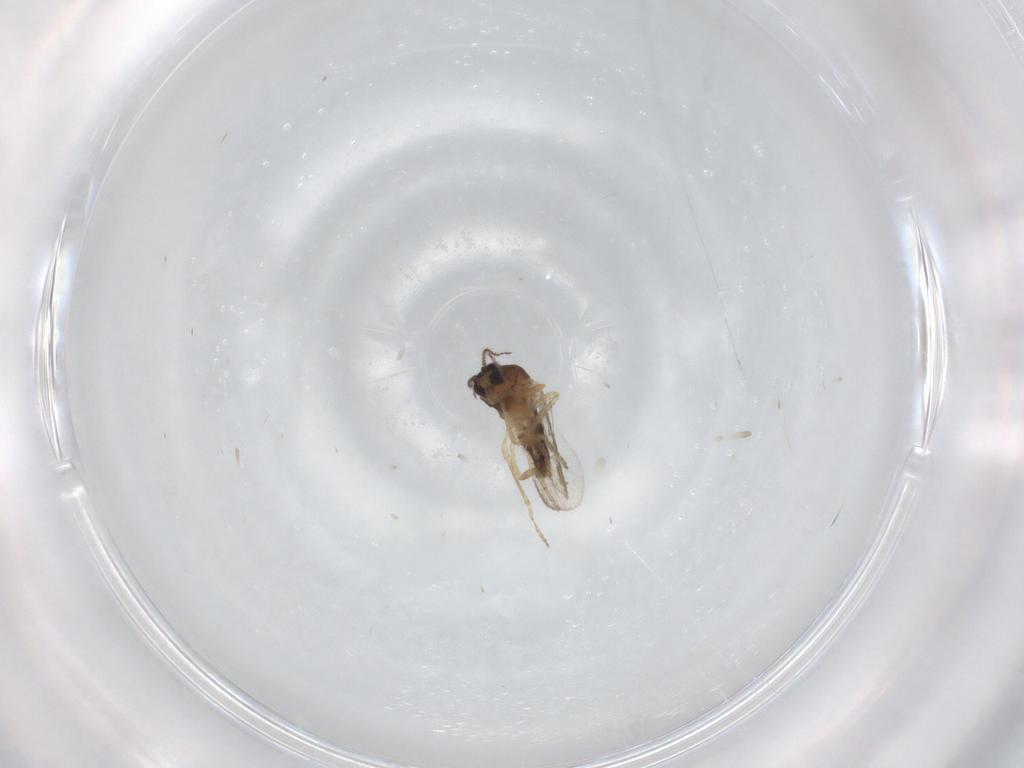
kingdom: Animalia
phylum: Arthropoda
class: Insecta
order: Diptera
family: Ceratopogonidae
